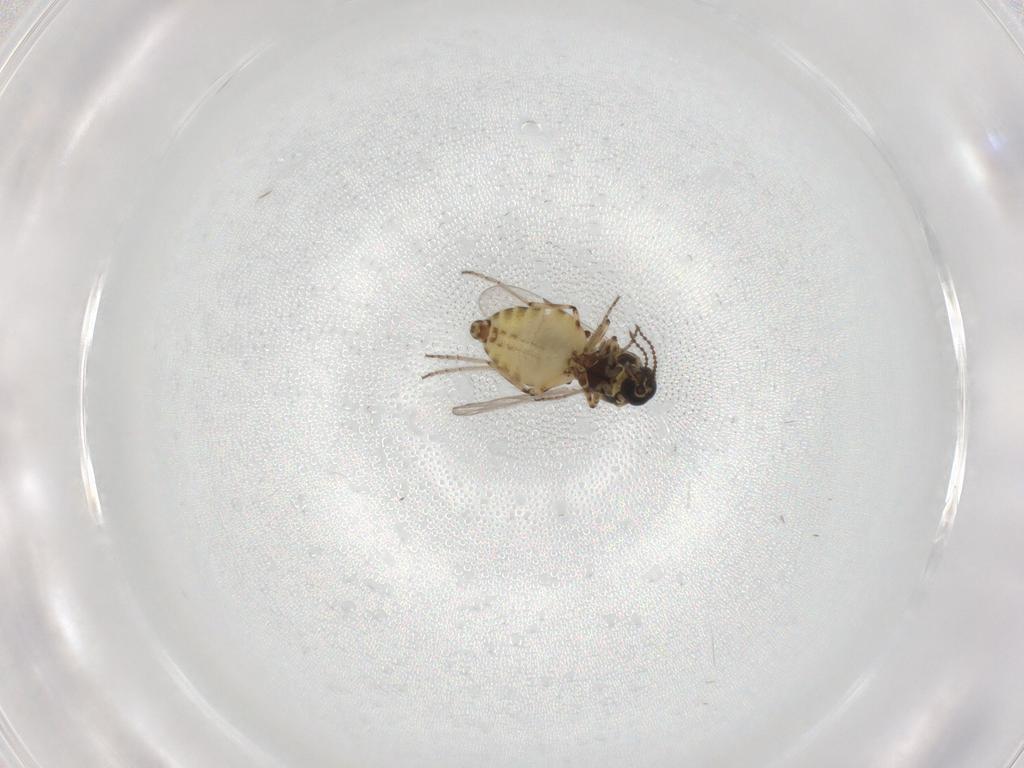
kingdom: Animalia
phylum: Arthropoda
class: Insecta
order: Diptera
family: Cecidomyiidae
